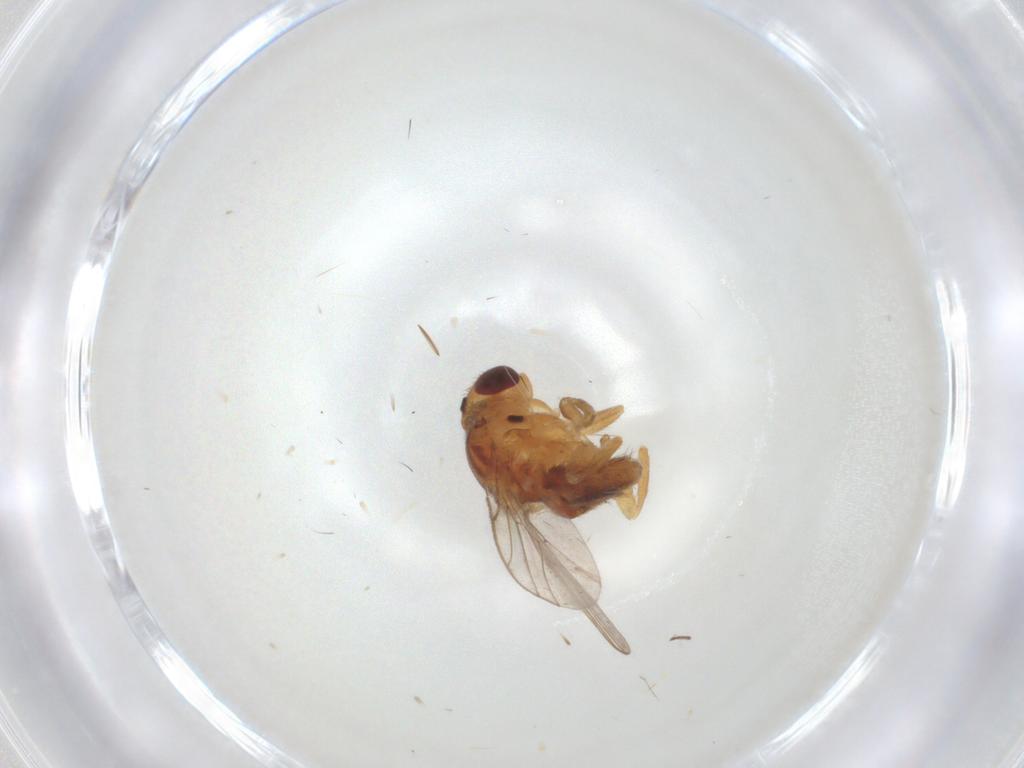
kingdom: Animalia
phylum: Arthropoda
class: Insecta
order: Diptera
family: Chloropidae
